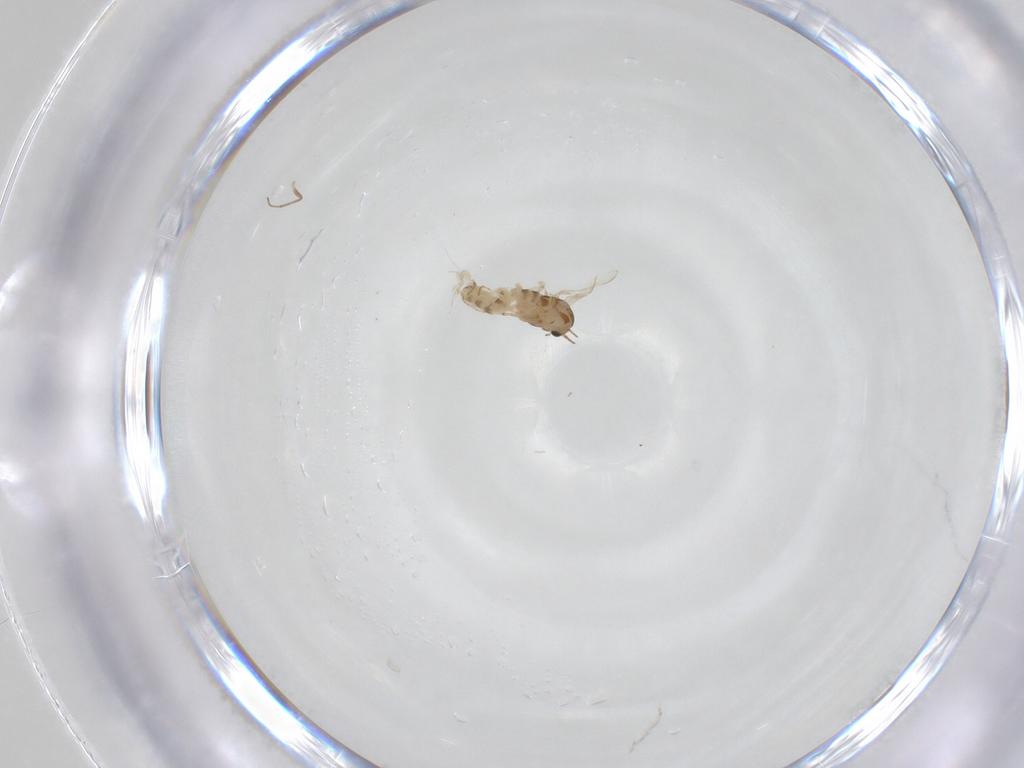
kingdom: Animalia
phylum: Arthropoda
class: Insecta
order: Diptera
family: Chironomidae
